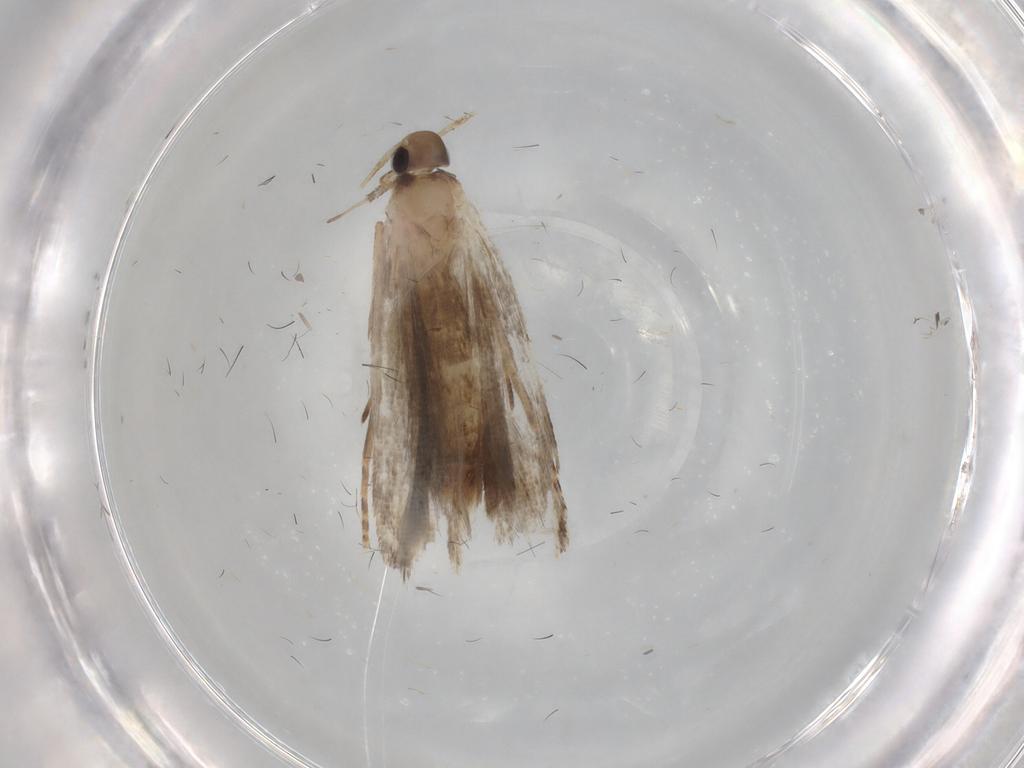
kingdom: Animalia
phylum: Arthropoda
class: Insecta
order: Lepidoptera
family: Gelechiidae
